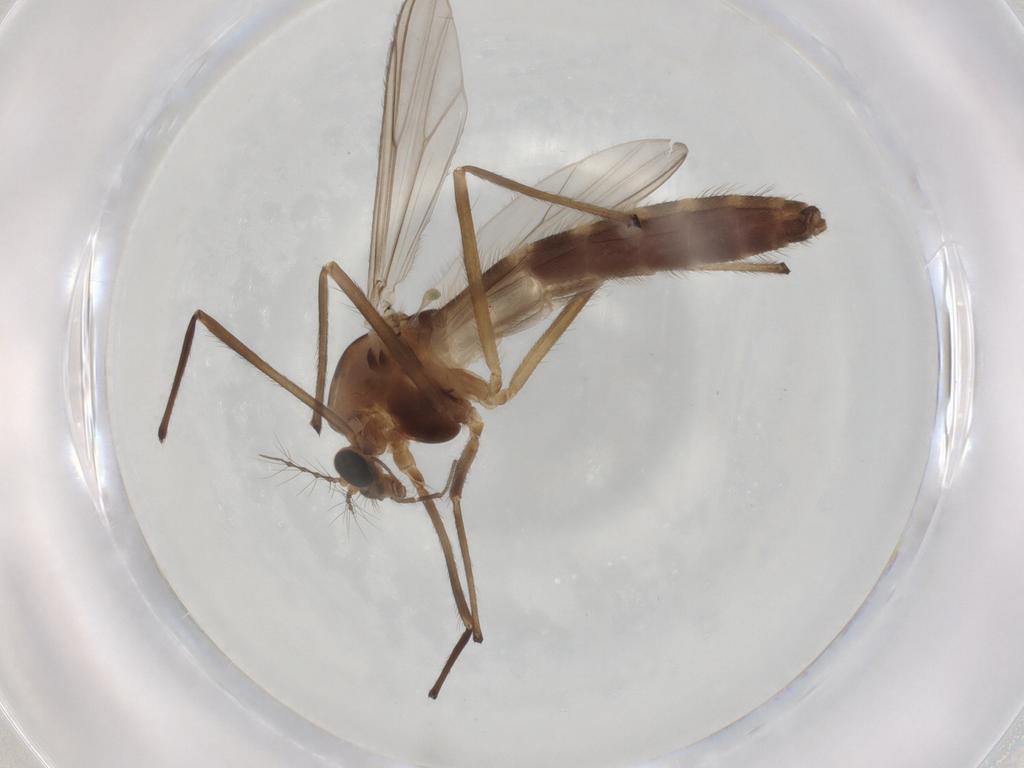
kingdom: Animalia
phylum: Arthropoda
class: Insecta
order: Diptera
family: Chironomidae
